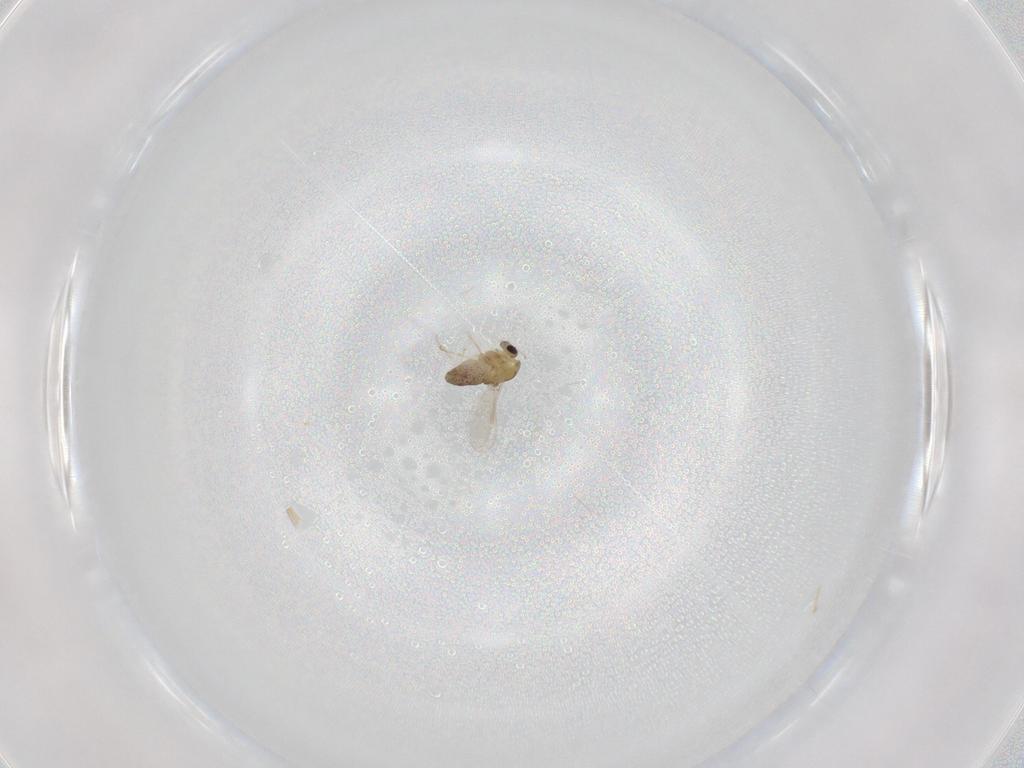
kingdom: Animalia
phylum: Arthropoda
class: Insecta
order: Diptera
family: Chironomidae
